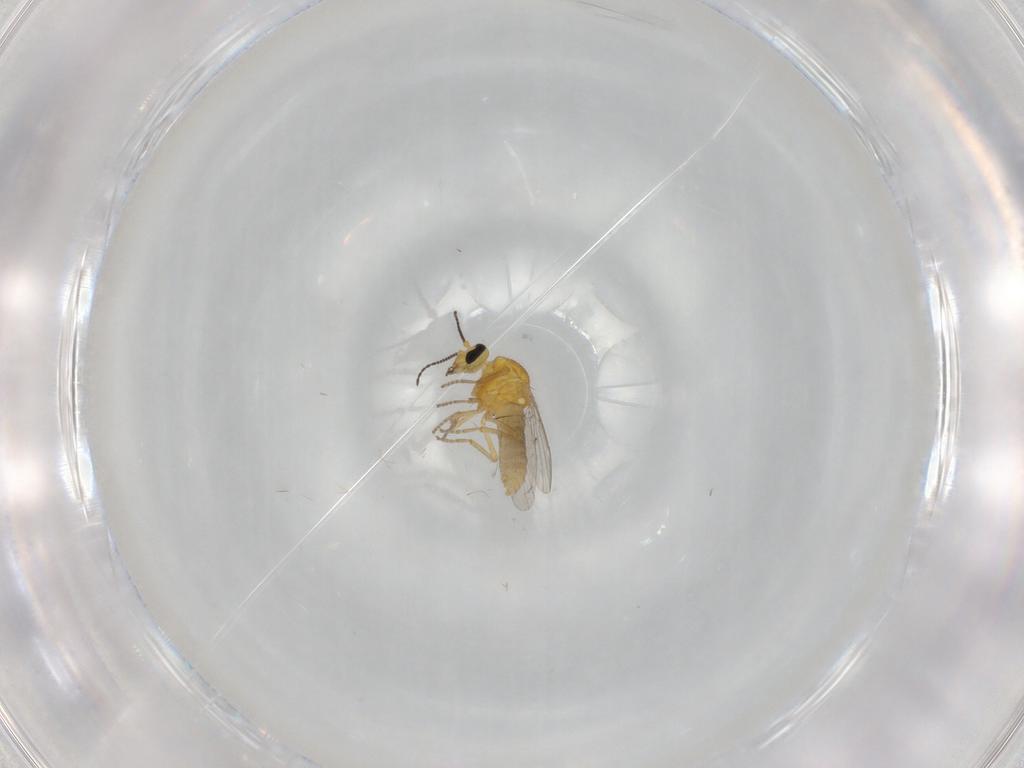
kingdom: Animalia
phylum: Arthropoda
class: Insecta
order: Diptera
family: Ceratopogonidae
